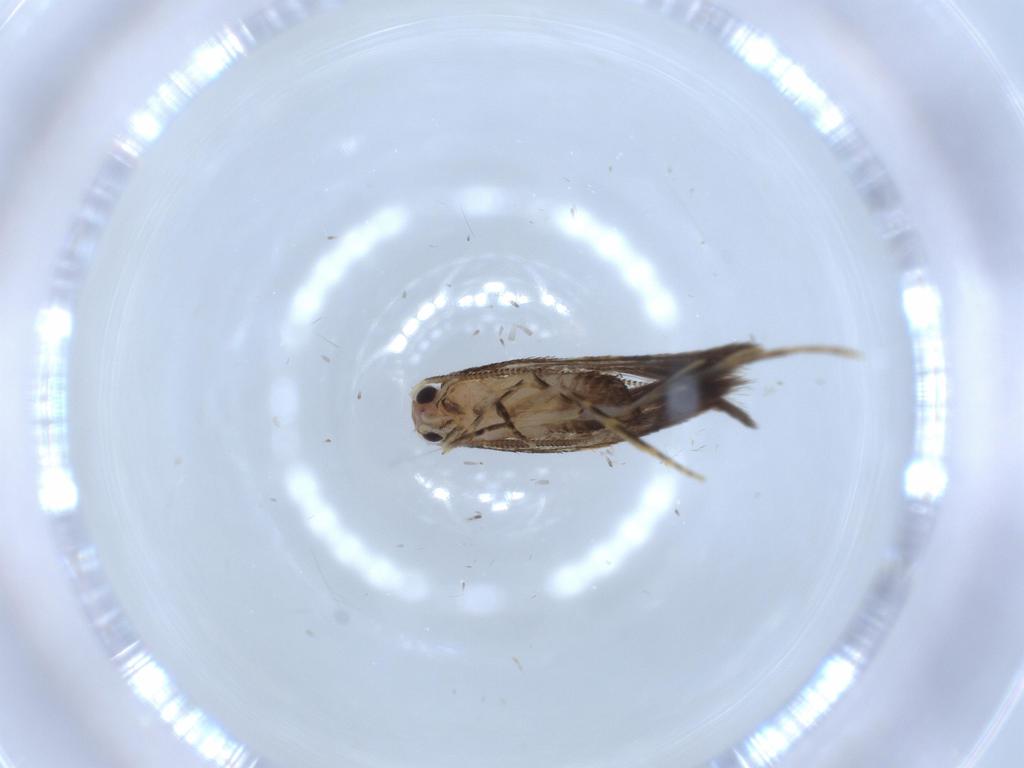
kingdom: Animalia
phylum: Arthropoda
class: Insecta
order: Lepidoptera
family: Tineidae
